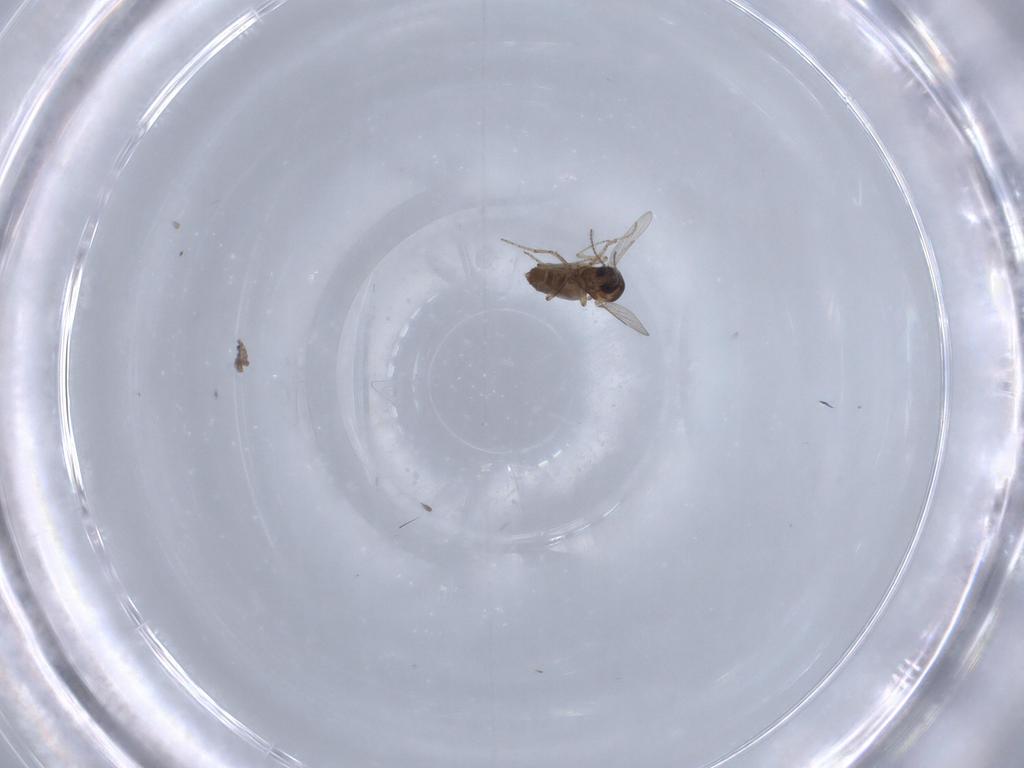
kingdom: Animalia
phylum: Arthropoda
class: Insecta
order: Diptera
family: Ceratopogonidae
